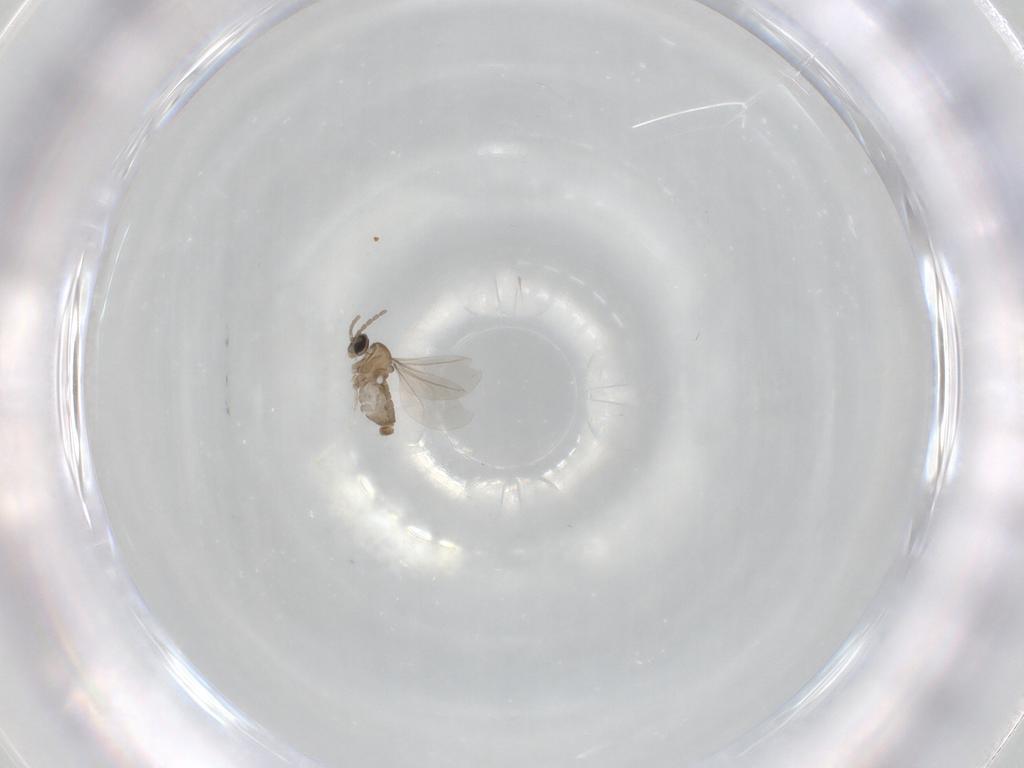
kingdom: Animalia
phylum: Arthropoda
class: Insecta
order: Diptera
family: Cecidomyiidae
